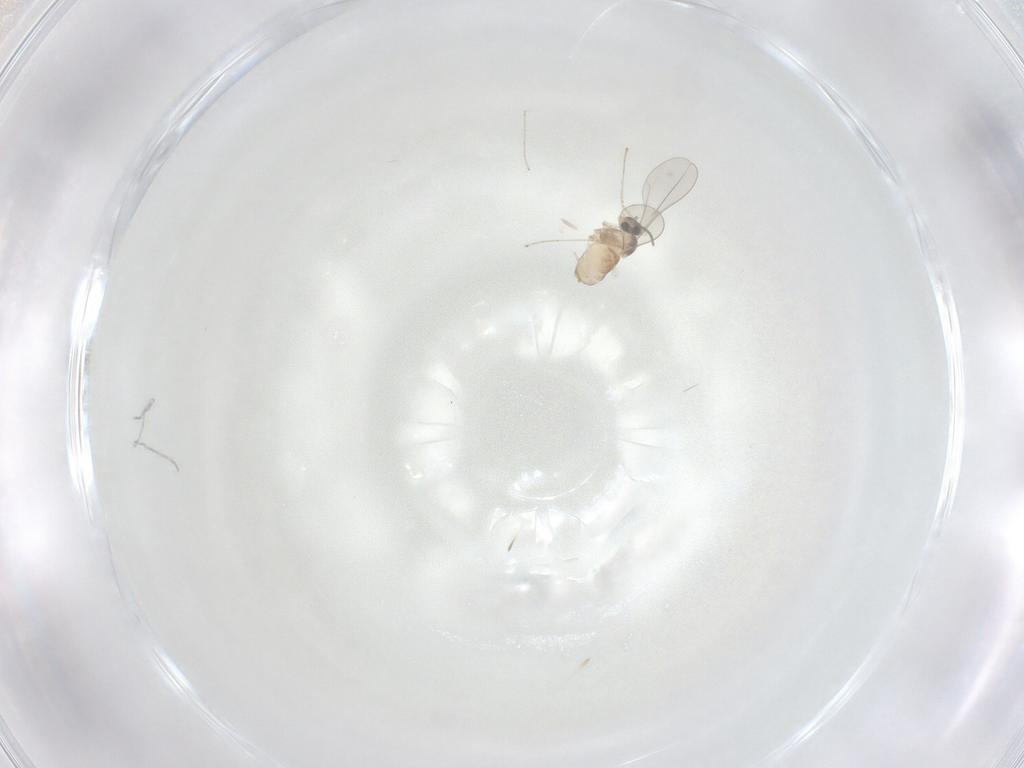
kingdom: Animalia
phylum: Arthropoda
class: Insecta
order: Diptera
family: Cecidomyiidae
